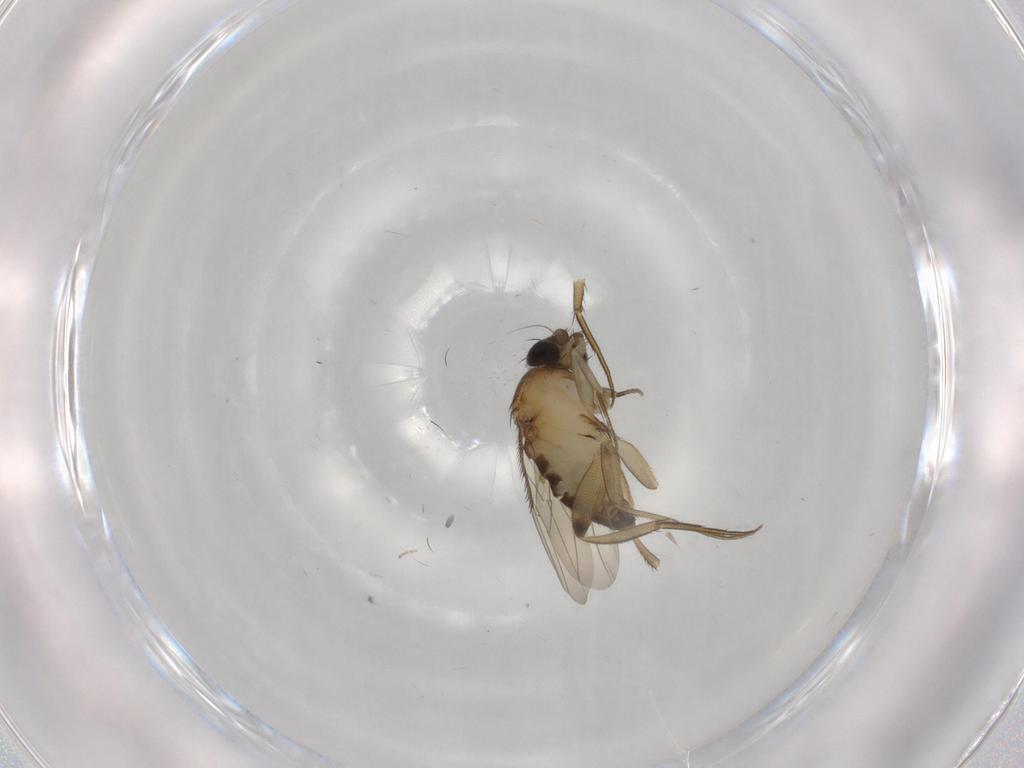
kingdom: Animalia
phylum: Arthropoda
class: Insecta
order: Diptera
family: Phoridae
